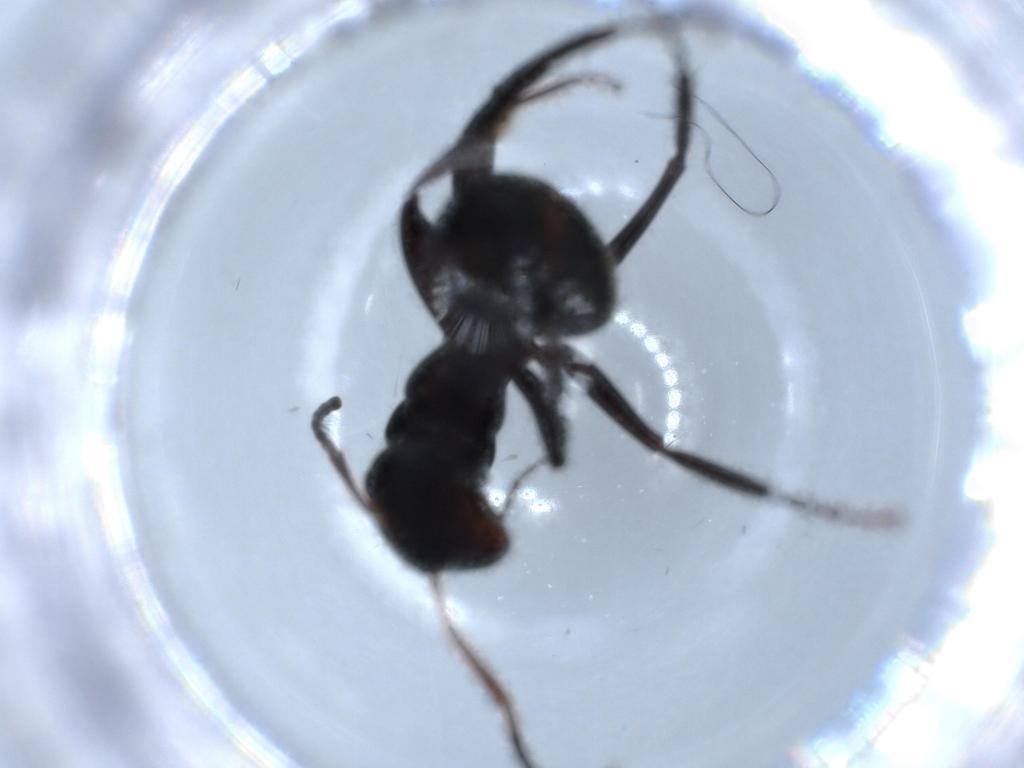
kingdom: Animalia
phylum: Arthropoda
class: Insecta
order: Hymenoptera
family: Formicidae
